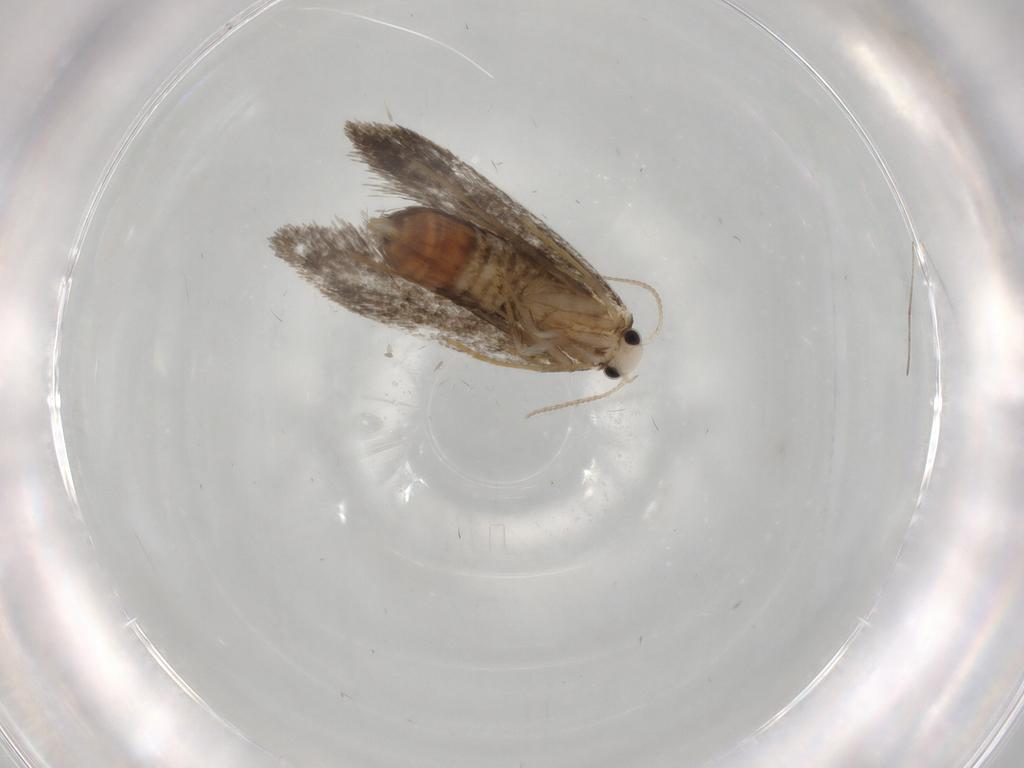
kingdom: Animalia
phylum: Arthropoda
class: Insecta
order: Lepidoptera
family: Psychidae
